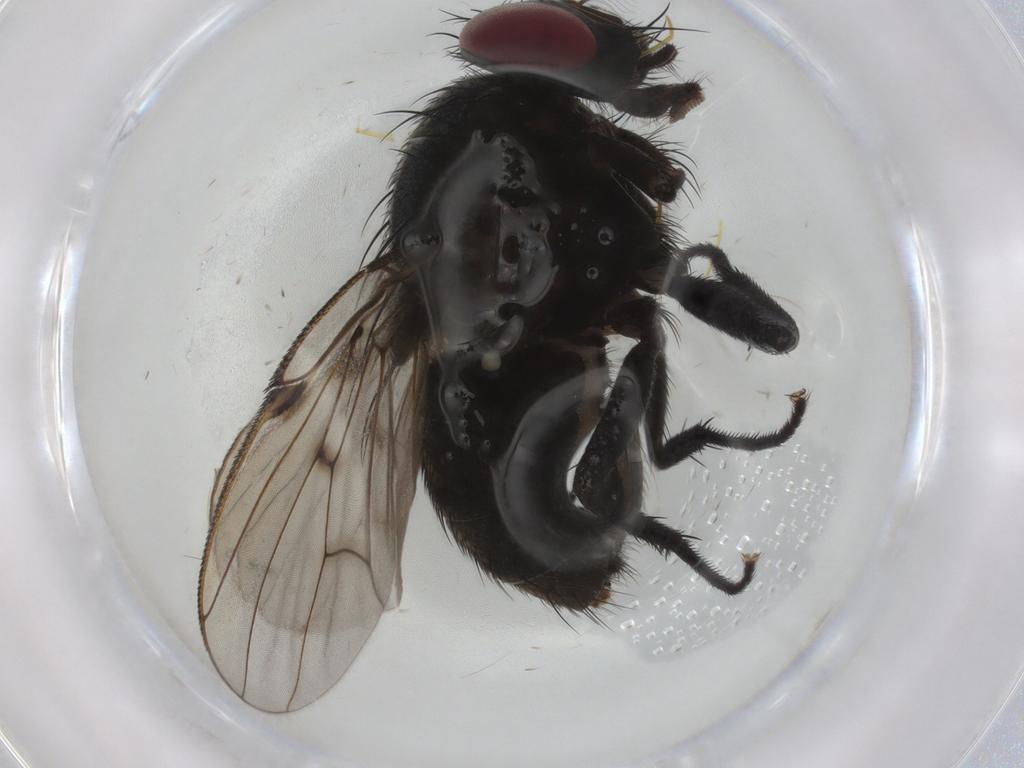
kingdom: Animalia
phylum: Arthropoda
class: Insecta
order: Diptera
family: Muscidae
